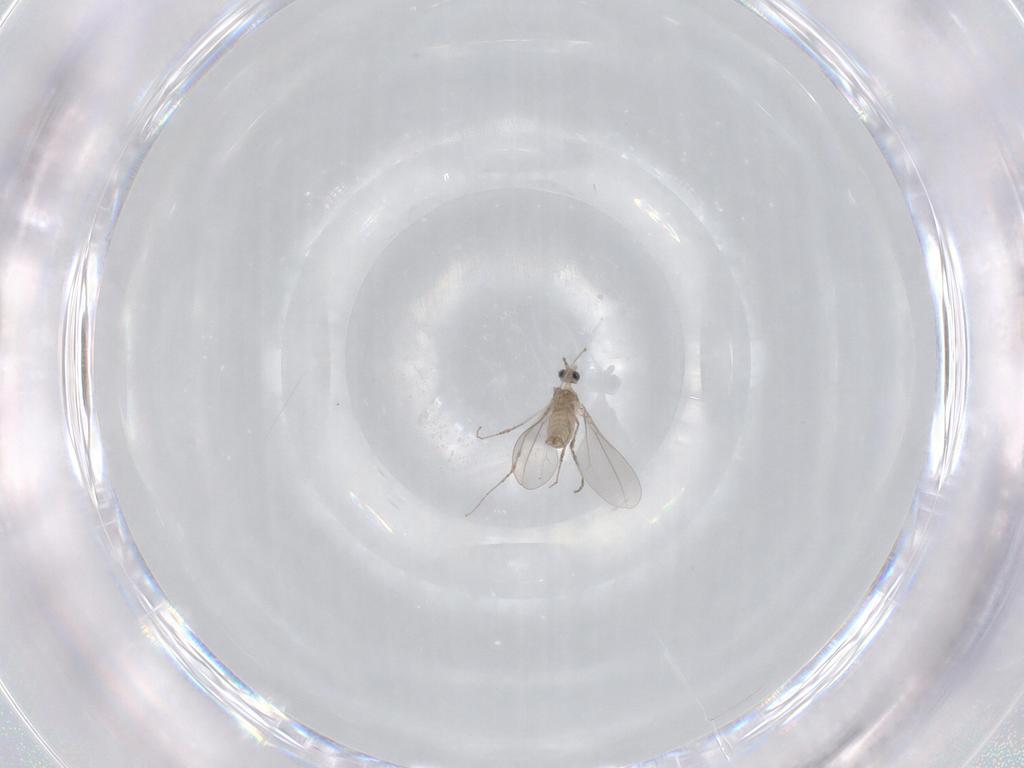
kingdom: Animalia
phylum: Arthropoda
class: Insecta
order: Diptera
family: Cecidomyiidae
